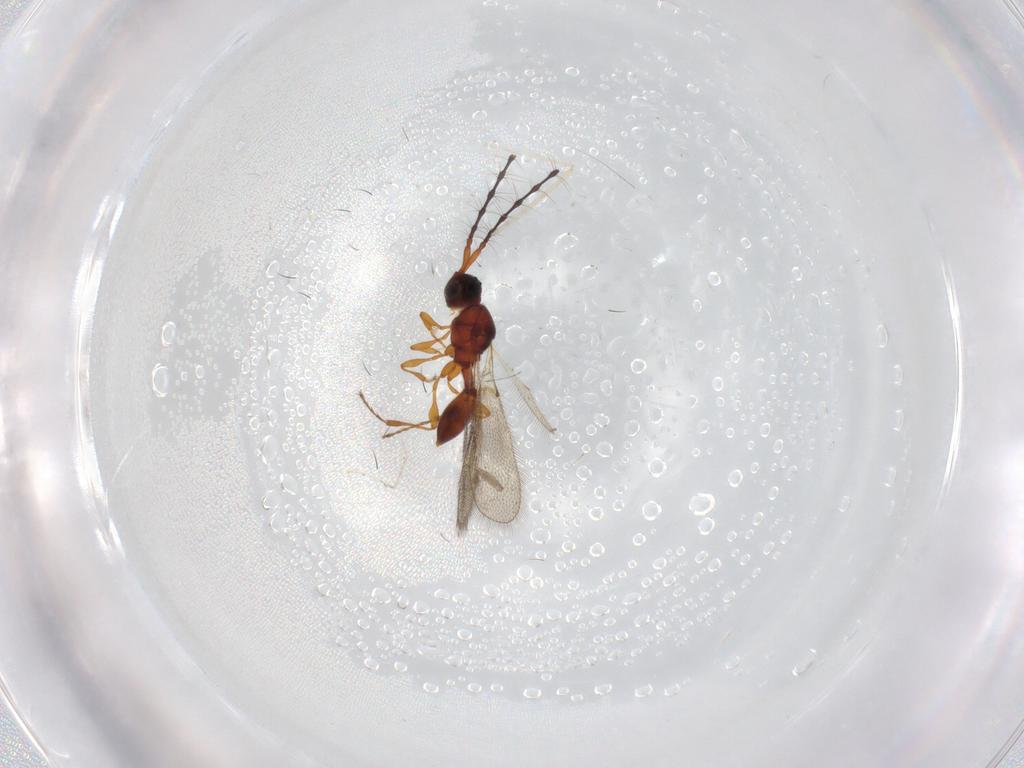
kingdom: Animalia
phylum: Arthropoda
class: Insecta
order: Hymenoptera
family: Diapriidae
